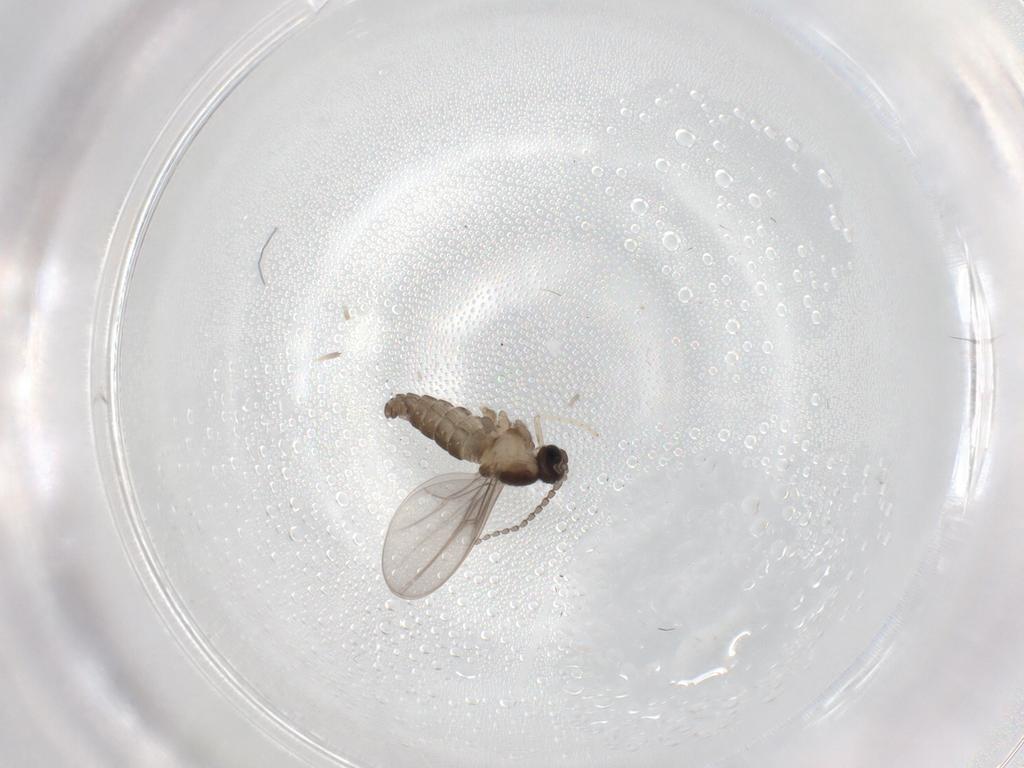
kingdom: Animalia
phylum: Arthropoda
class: Insecta
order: Diptera
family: Cecidomyiidae
